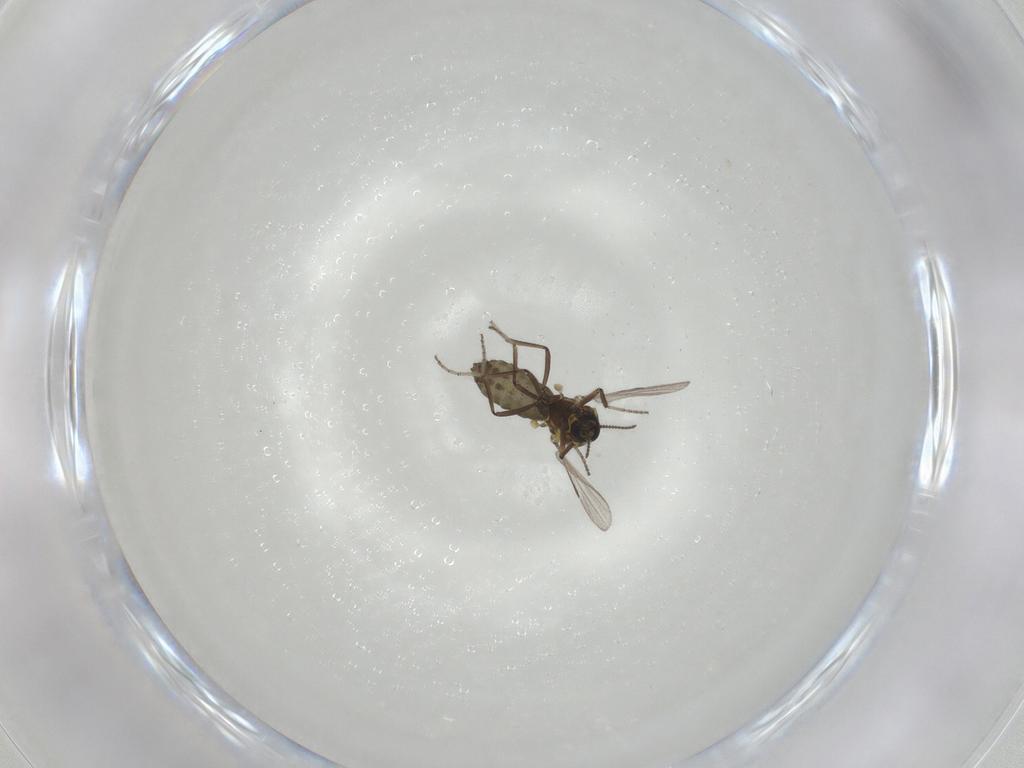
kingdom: Animalia
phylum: Arthropoda
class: Insecta
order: Diptera
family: Ceratopogonidae
